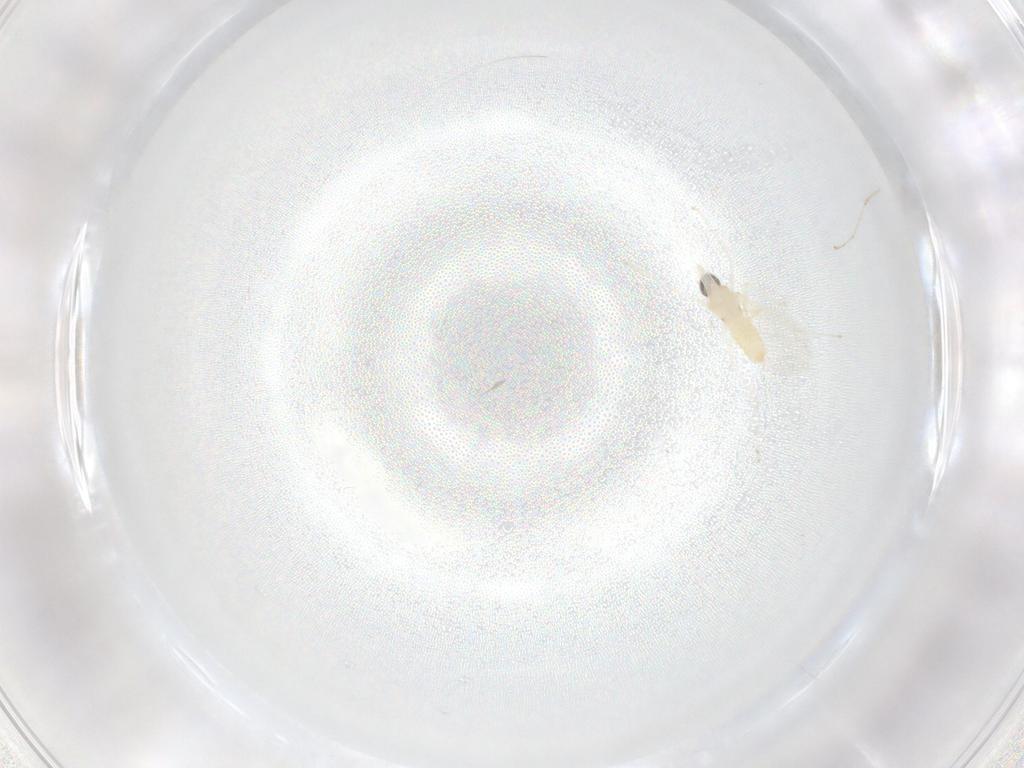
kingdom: Animalia
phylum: Arthropoda
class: Insecta
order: Diptera
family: Cecidomyiidae
